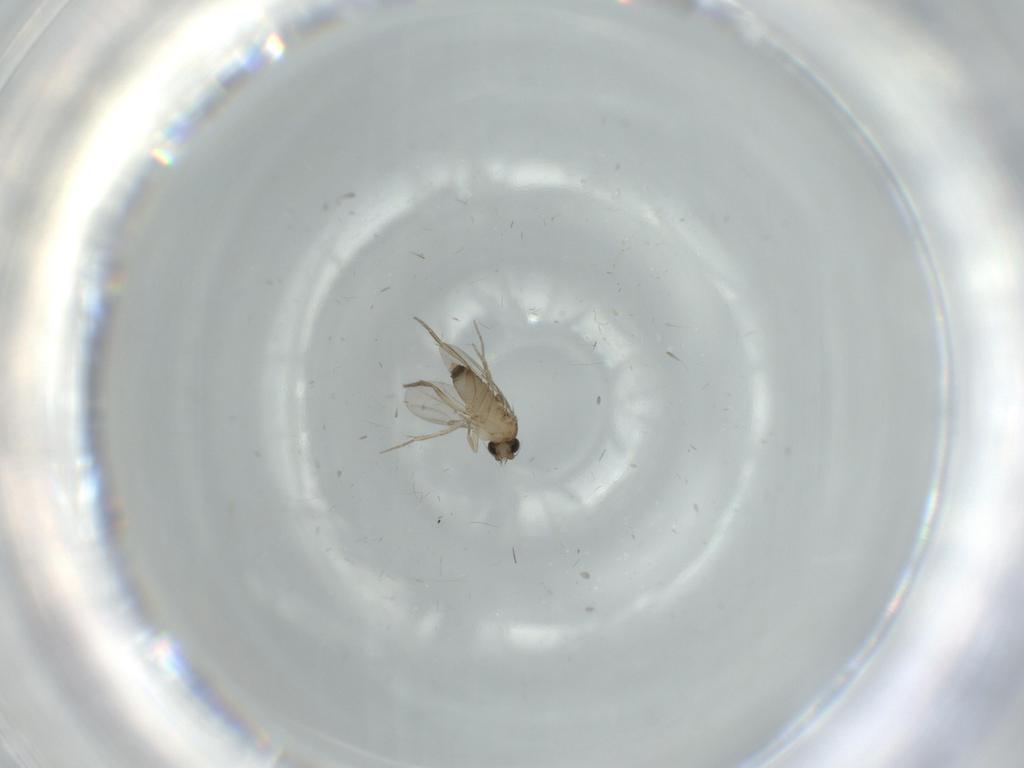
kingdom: Animalia
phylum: Arthropoda
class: Insecta
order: Diptera
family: Phoridae
